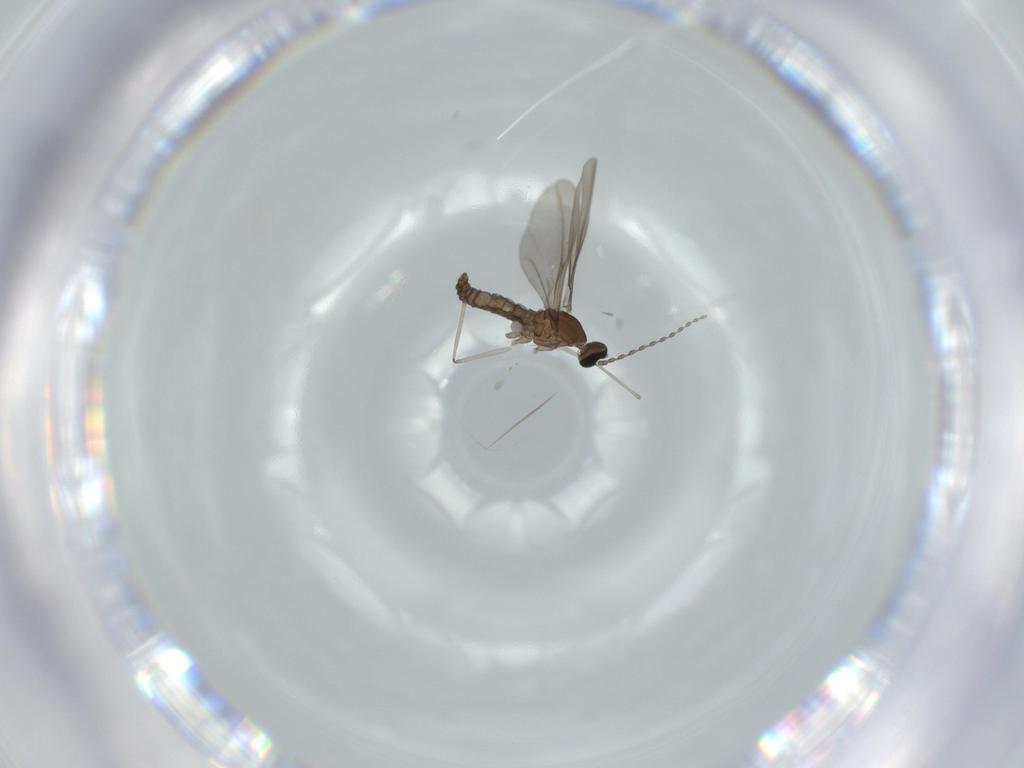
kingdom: Animalia
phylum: Arthropoda
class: Insecta
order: Diptera
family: Cecidomyiidae
